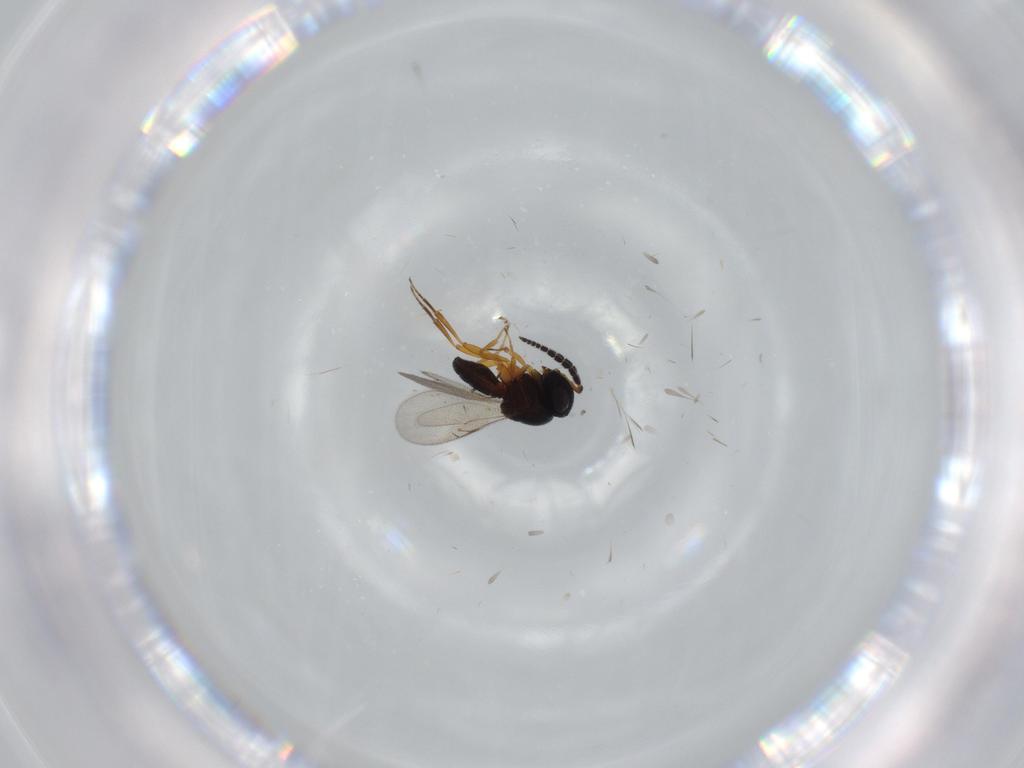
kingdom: Animalia
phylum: Arthropoda
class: Insecta
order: Hymenoptera
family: Scelionidae
